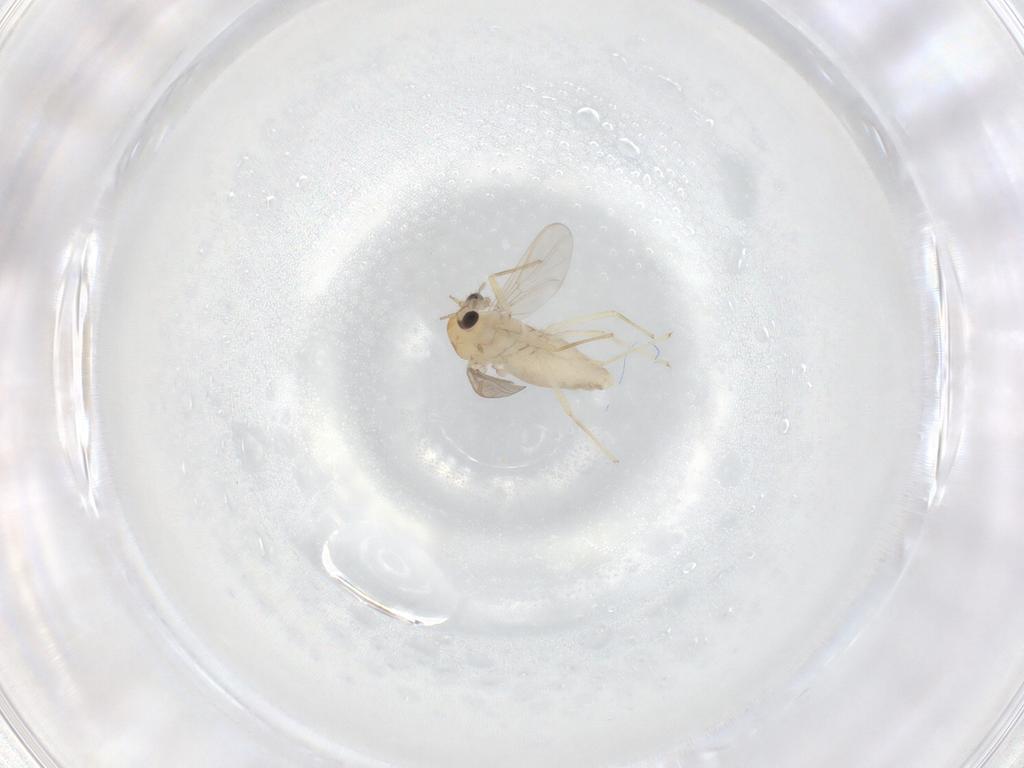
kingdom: Animalia
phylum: Arthropoda
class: Insecta
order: Diptera
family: Chironomidae
